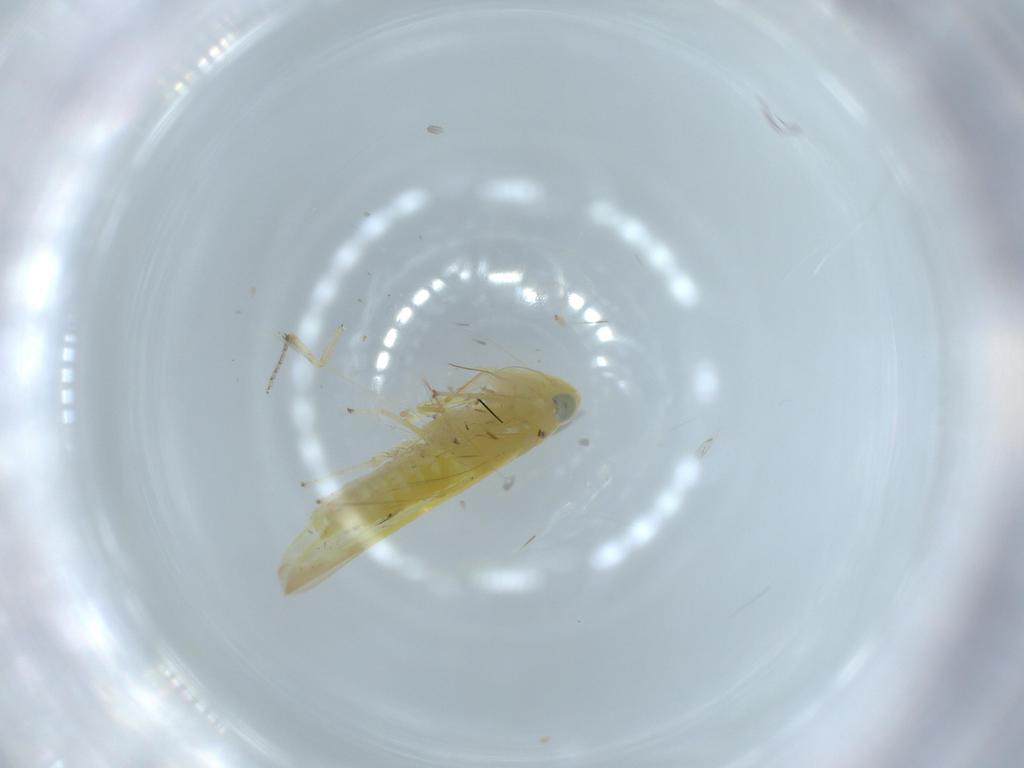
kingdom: Animalia
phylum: Arthropoda
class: Insecta
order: Hemiptera
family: Cicadellidae
